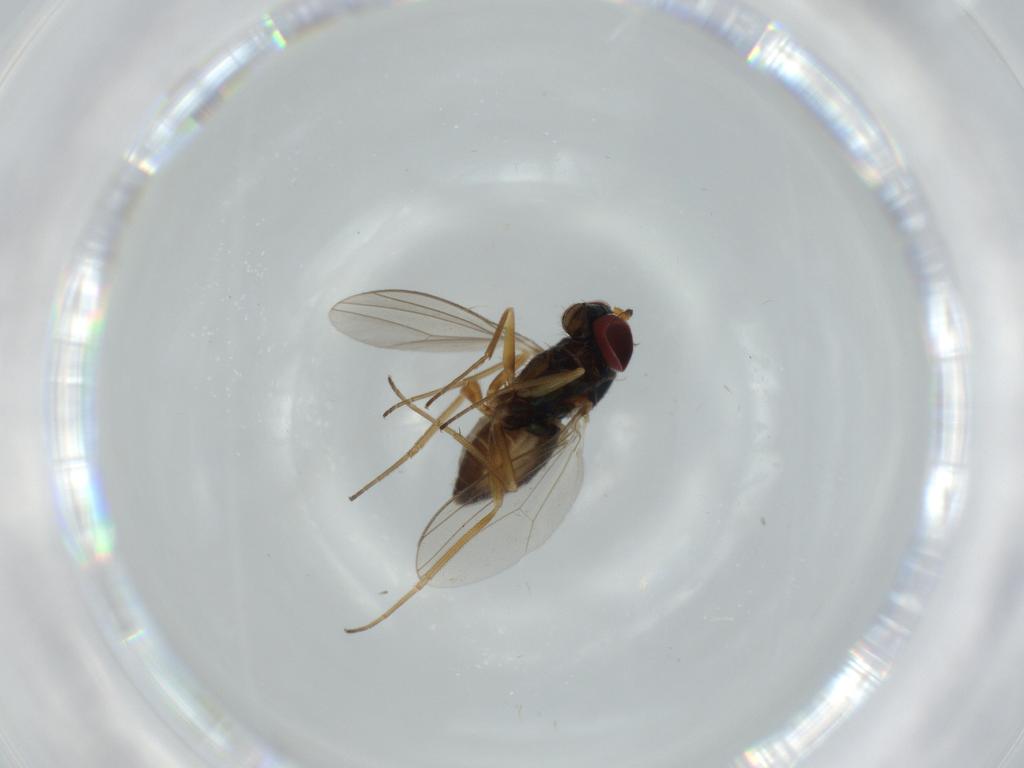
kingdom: Animalia
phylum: Arthropoda
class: Insecta
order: Diptera
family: Dolichopodidae
